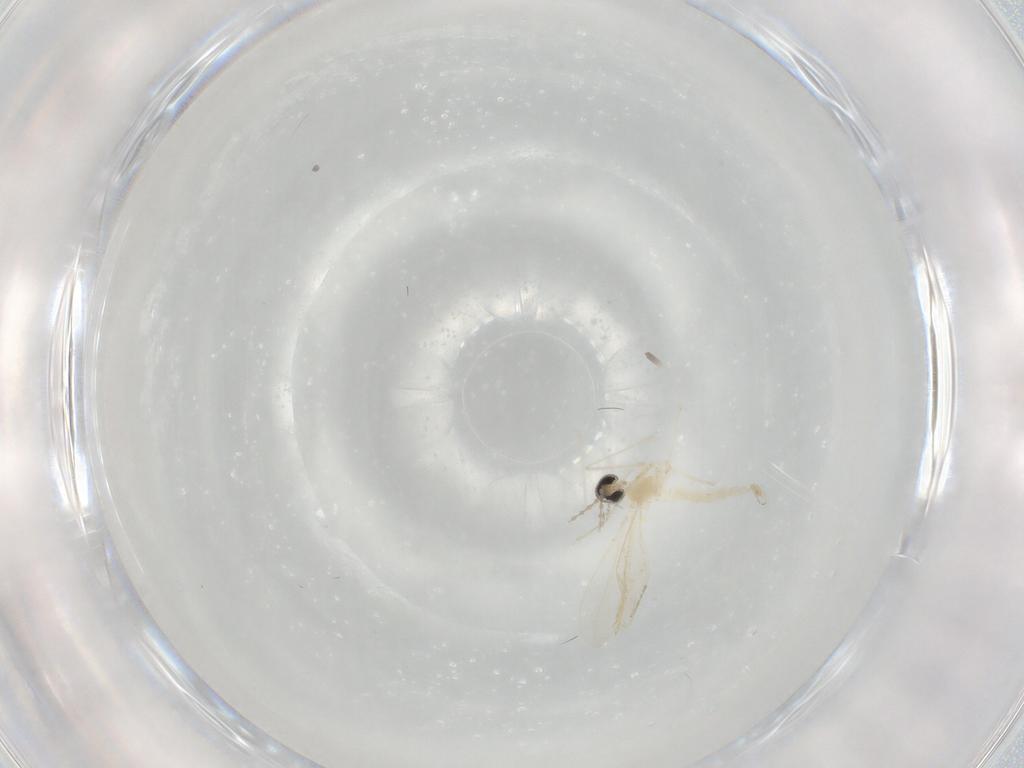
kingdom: Animalia
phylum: Arthropoda
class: Insecta
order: Diptera
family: Cecidomyiidae
